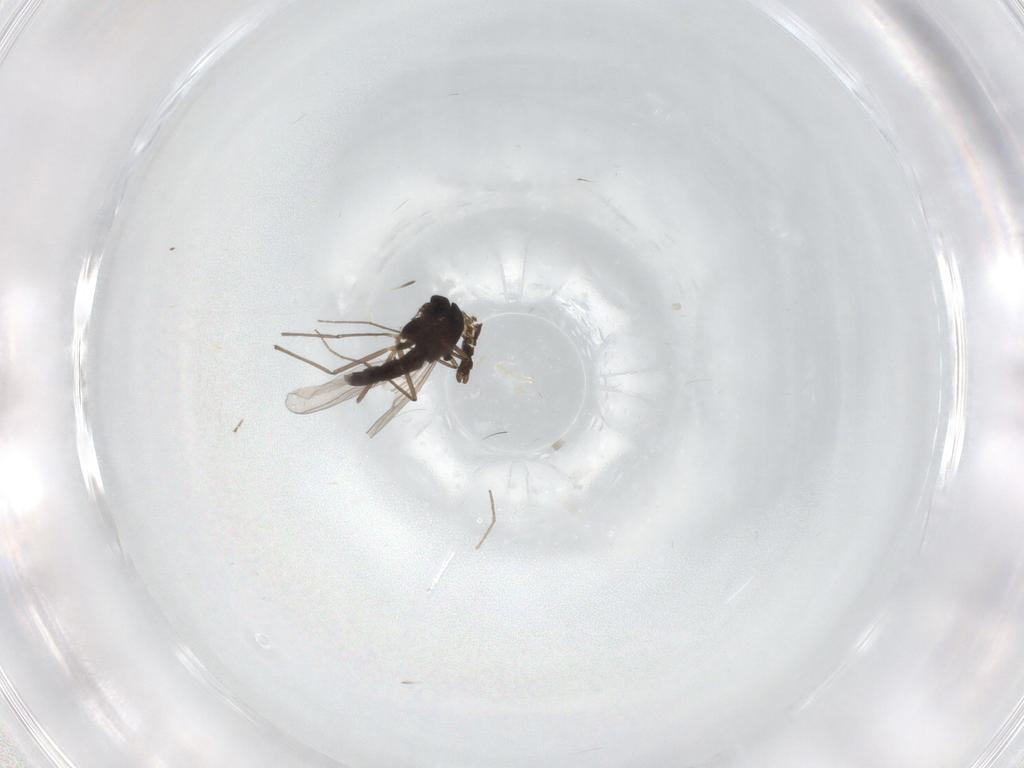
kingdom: Animalia
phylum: Arthropoda
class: Insecta
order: Diptera
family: Chironomidae
